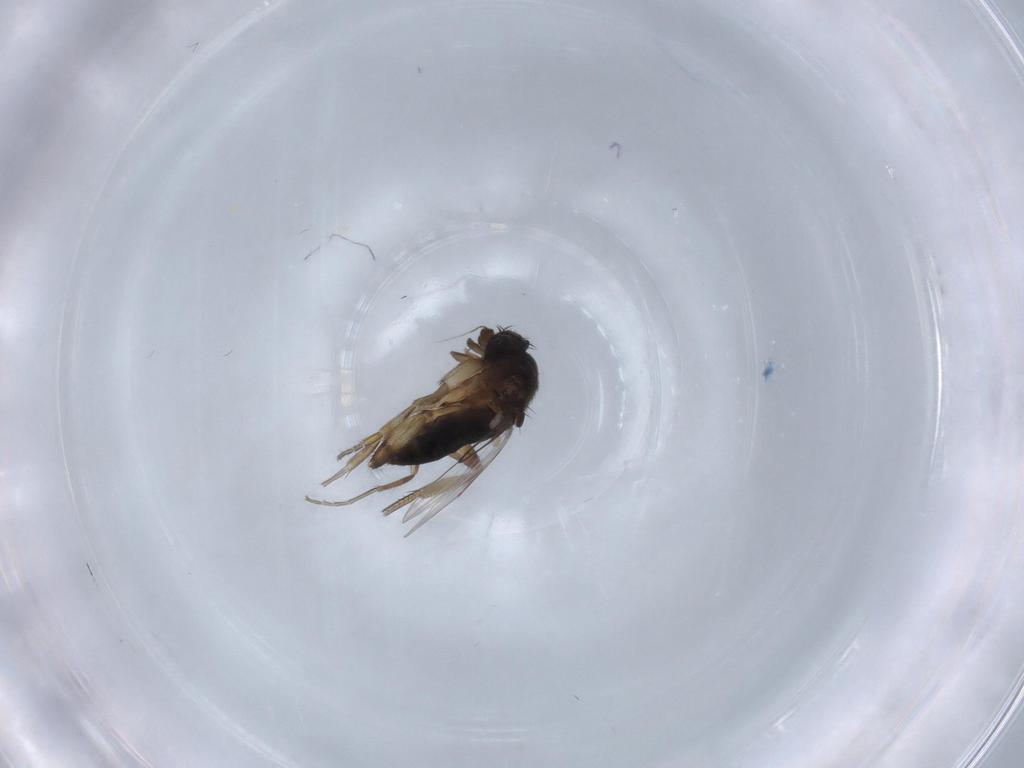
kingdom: Animalia
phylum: Arthropoda
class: Insecta
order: Diptera
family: Phoridae
